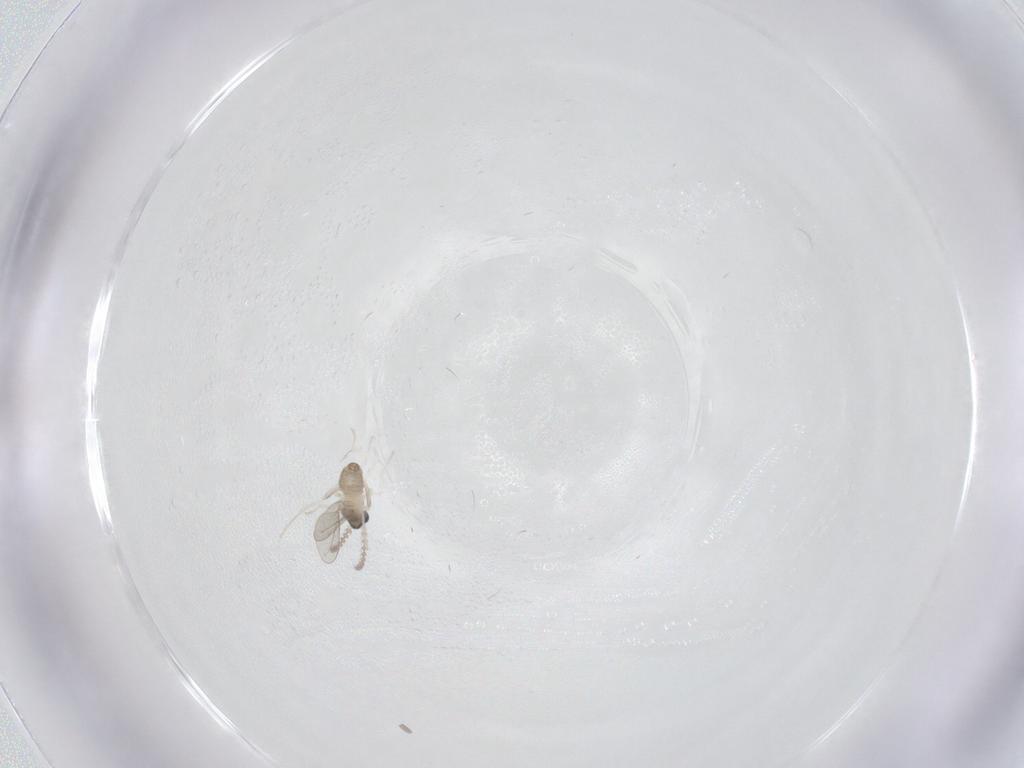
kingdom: Animalia
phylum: Arthropoda
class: Insecta
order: Diptera
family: Cecidomyiidae
